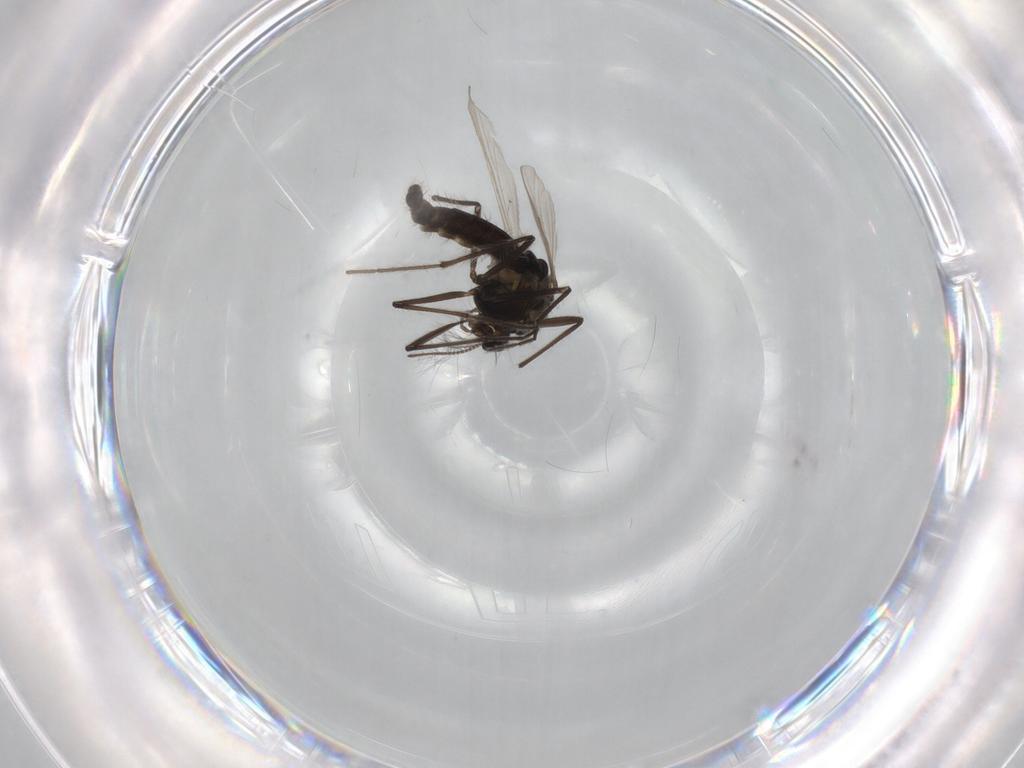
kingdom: Animalia
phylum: Arthropoda
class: Insecta
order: Diptera
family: Chironomidae
